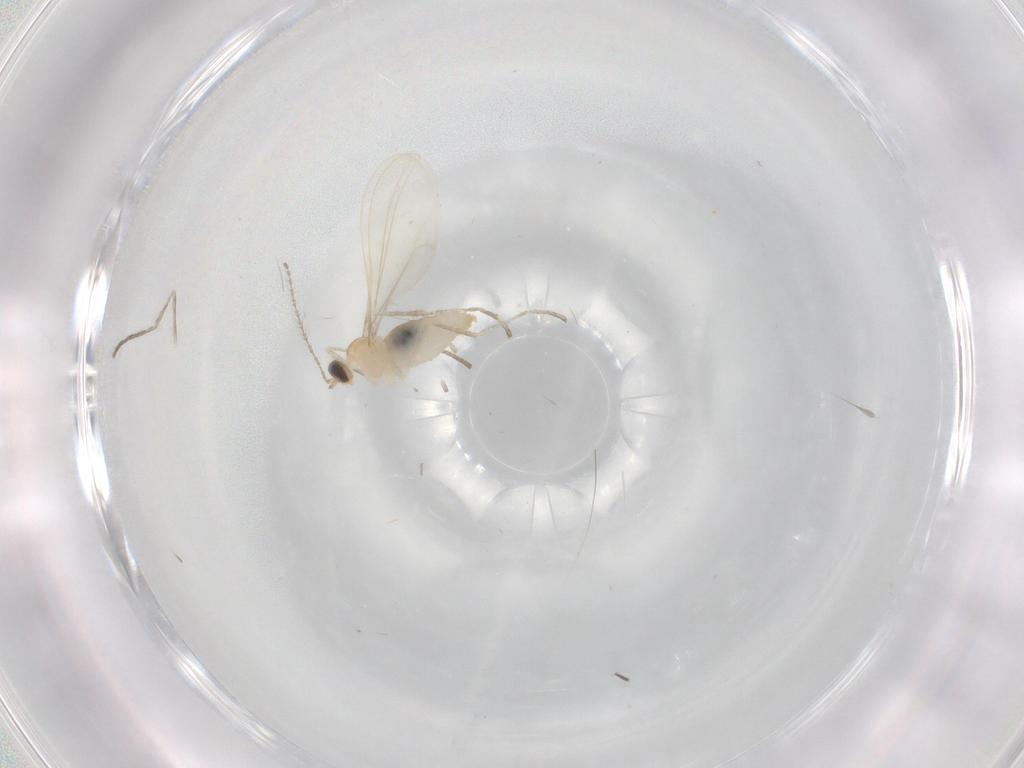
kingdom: Animalia
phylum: Arthropoda
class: Insecta
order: Diptera
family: Cecidomyiidae
